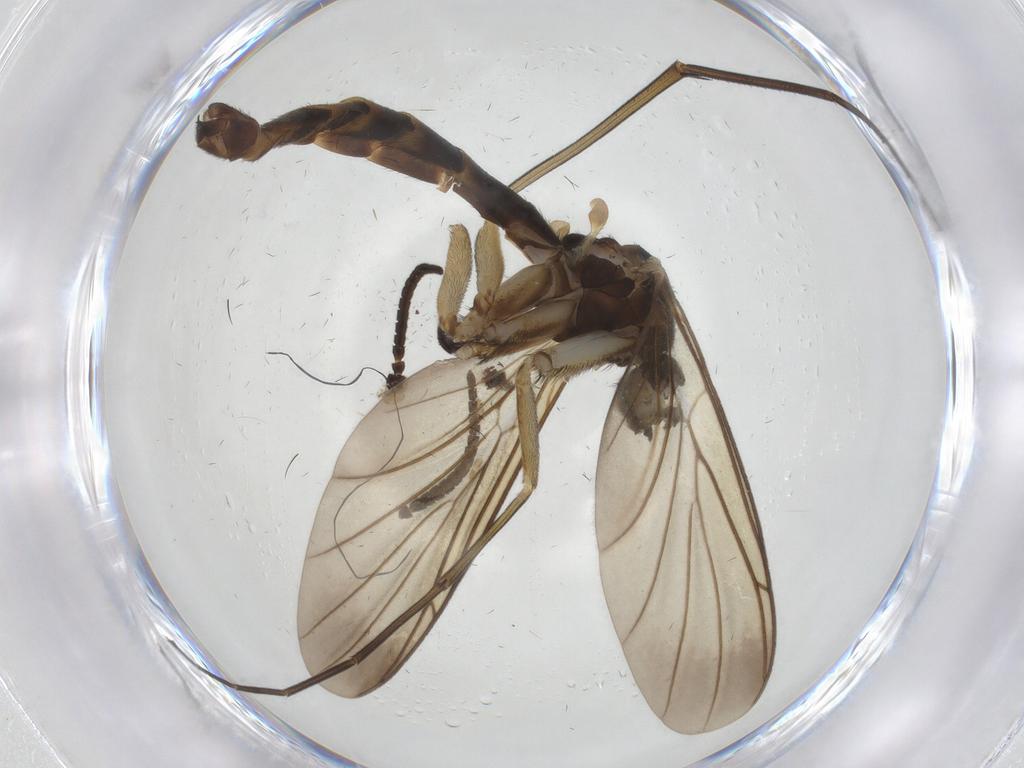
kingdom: Animalia
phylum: Arthropoda
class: Insecta
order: Diptera
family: Keroplatidae
